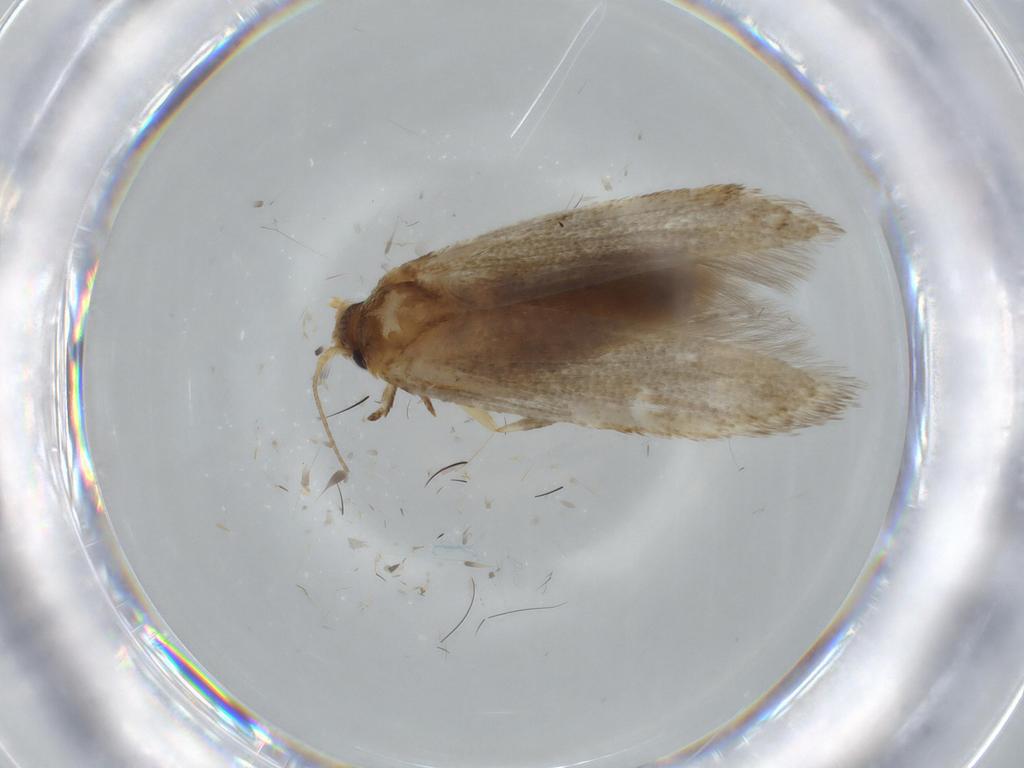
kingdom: Animalia
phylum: Arthropoda
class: Insecta
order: Lepidoptera
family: Blastobasidae
